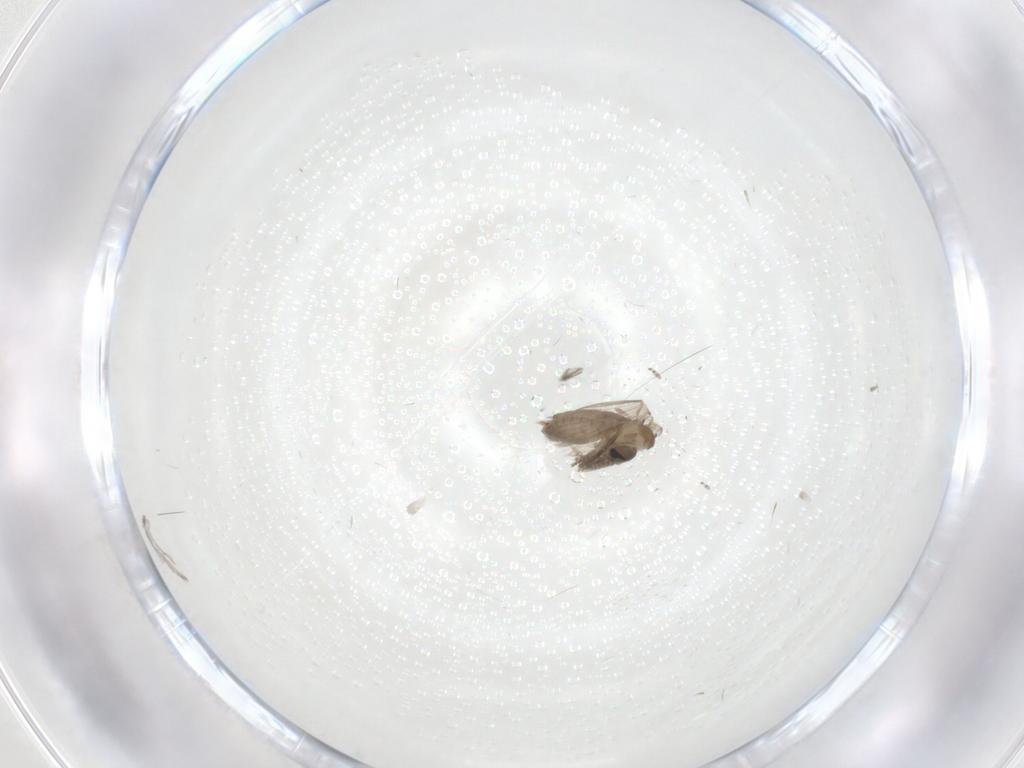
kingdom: Animalia
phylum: Arthropoda
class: Insecta
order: Diptera
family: Psychodidae
